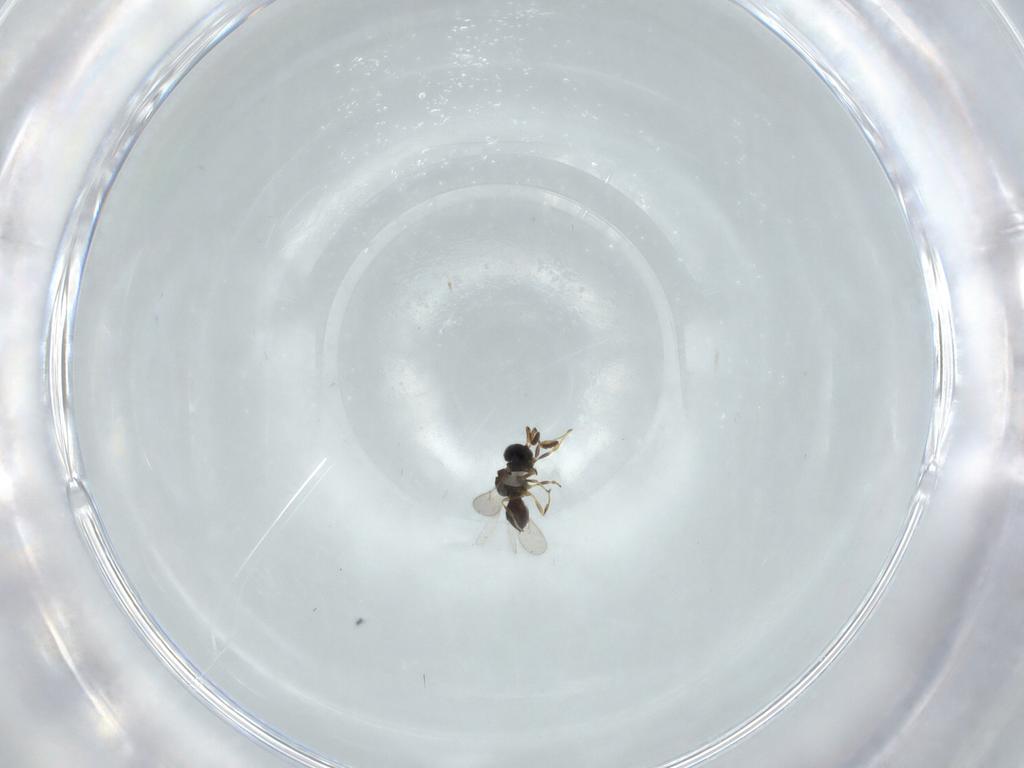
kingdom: Animalia
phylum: Arthropoda
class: Insecta
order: Hymenoptera
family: Scelionidae
